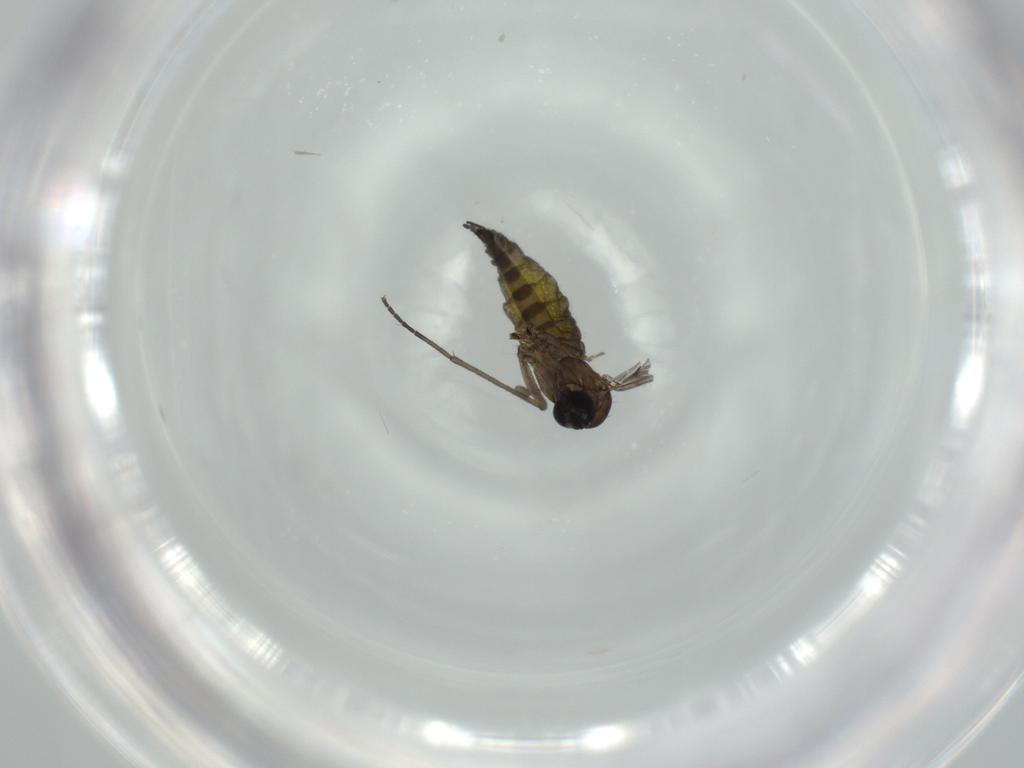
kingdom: Animalia
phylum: Arthropoda
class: Insecta
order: Diptera
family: Sciaridae
